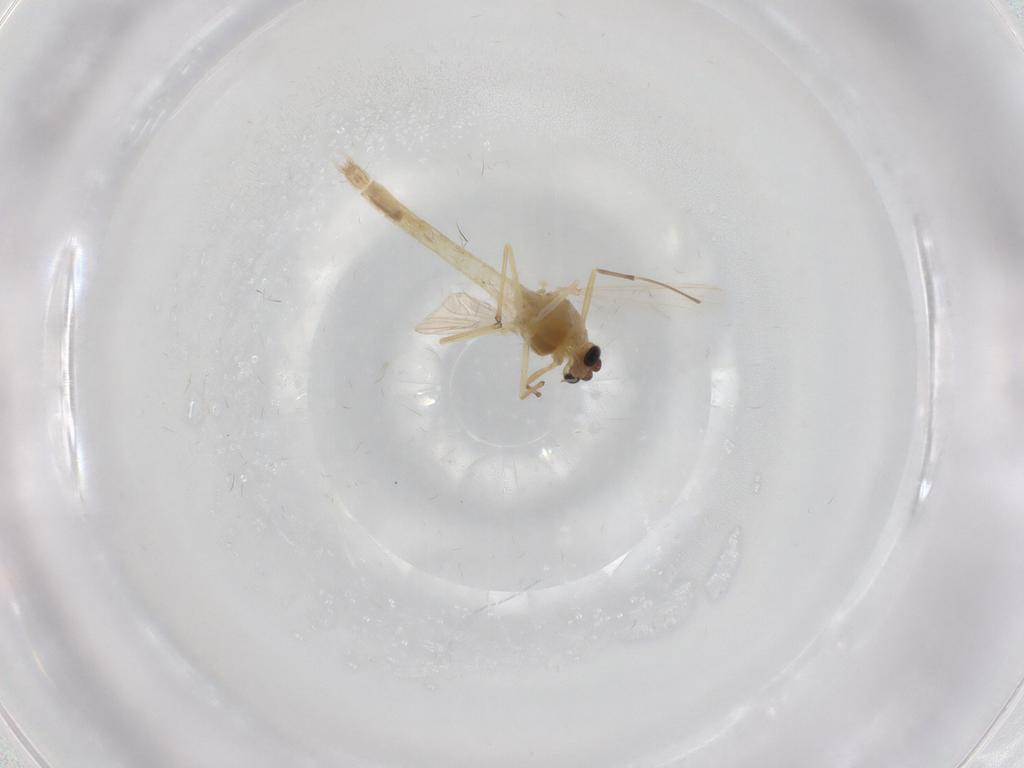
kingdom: Animalia
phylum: Arthropoda
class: Insecta
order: Diptera
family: Chironomidae
